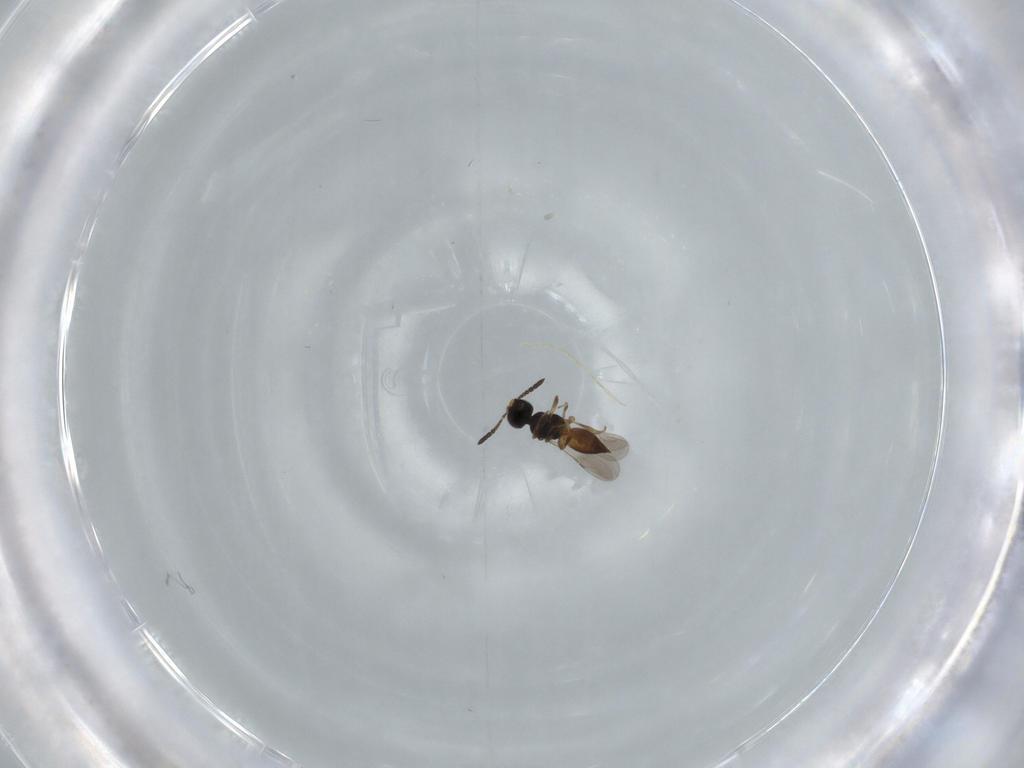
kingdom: Animalia
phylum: Arthropoda
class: Insecta
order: Hymenoptera
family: Ceraphronidae
